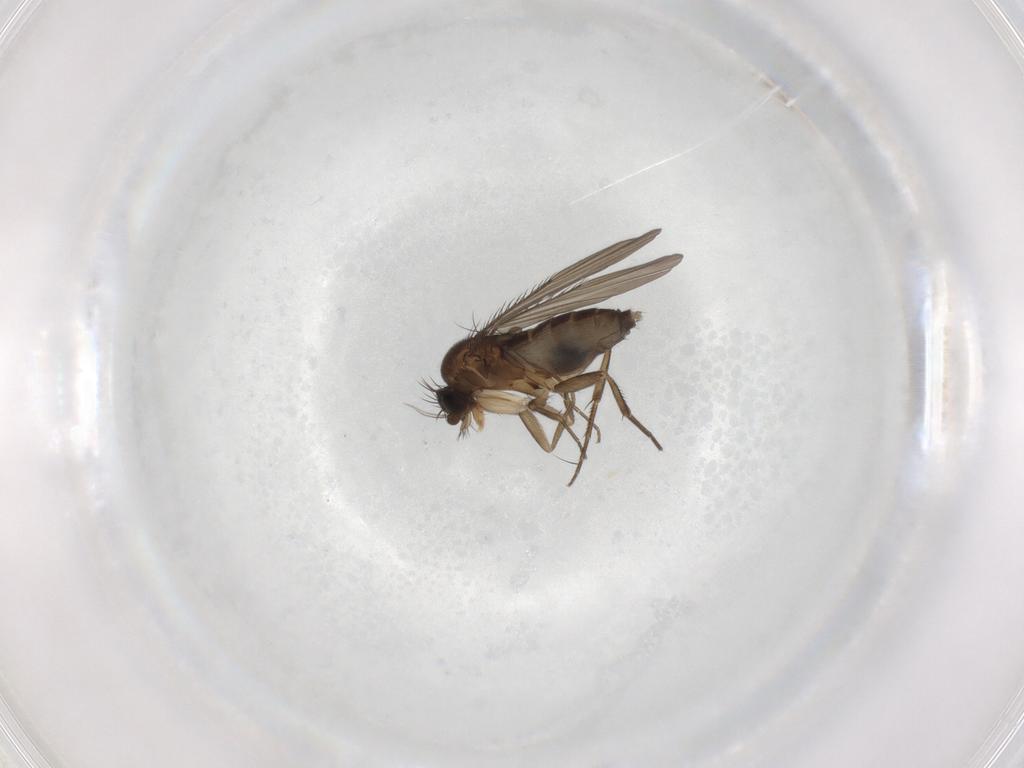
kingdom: Animalia
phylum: Arthropoda
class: Insecta
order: Diptera
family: Phoridae
